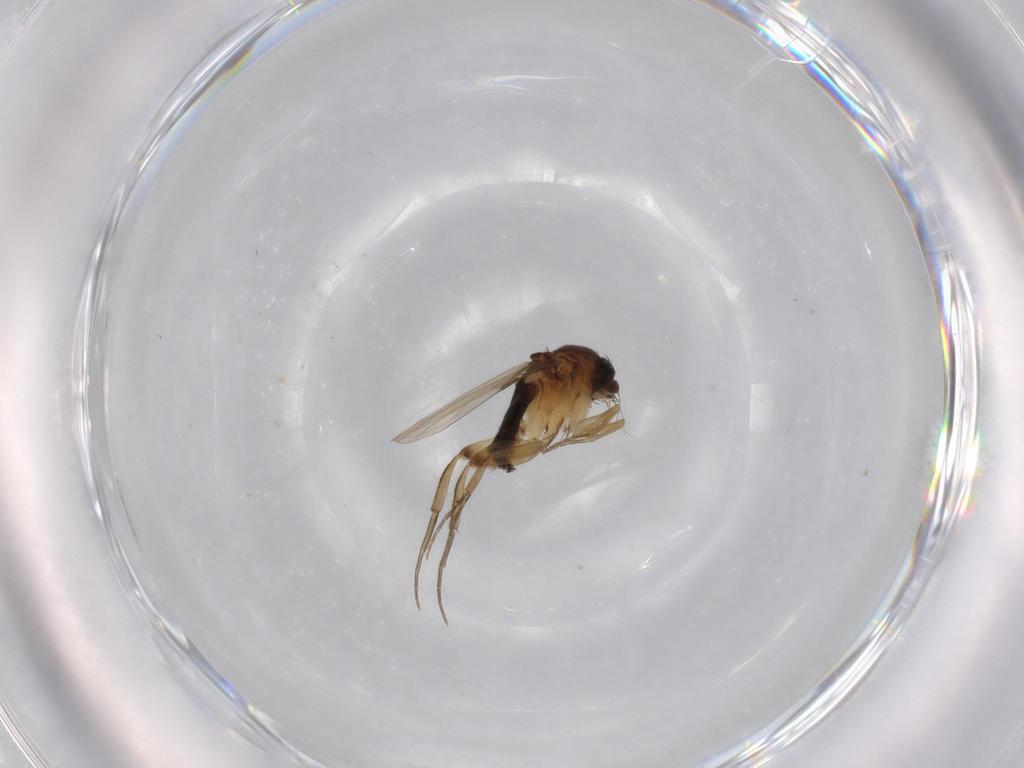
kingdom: Animalia
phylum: Arthropoda
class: Insecta
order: Diptera
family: Phoridae
